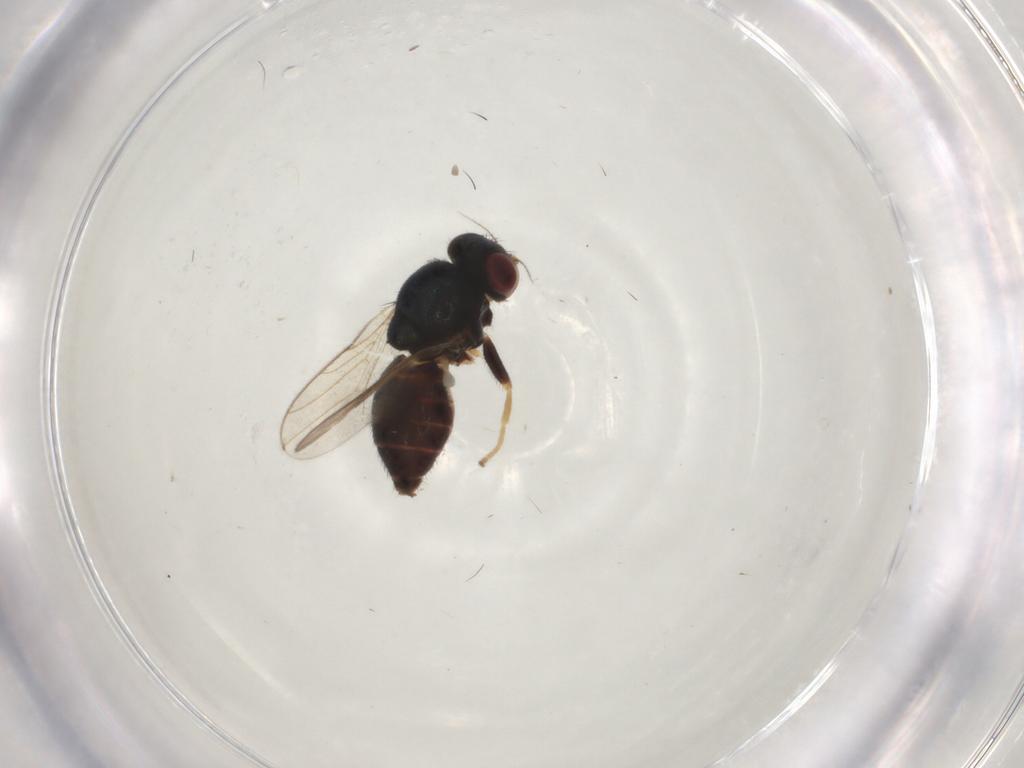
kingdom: Animalia
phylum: Arthropoda
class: Insecta
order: Diptera
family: Chloropidae
